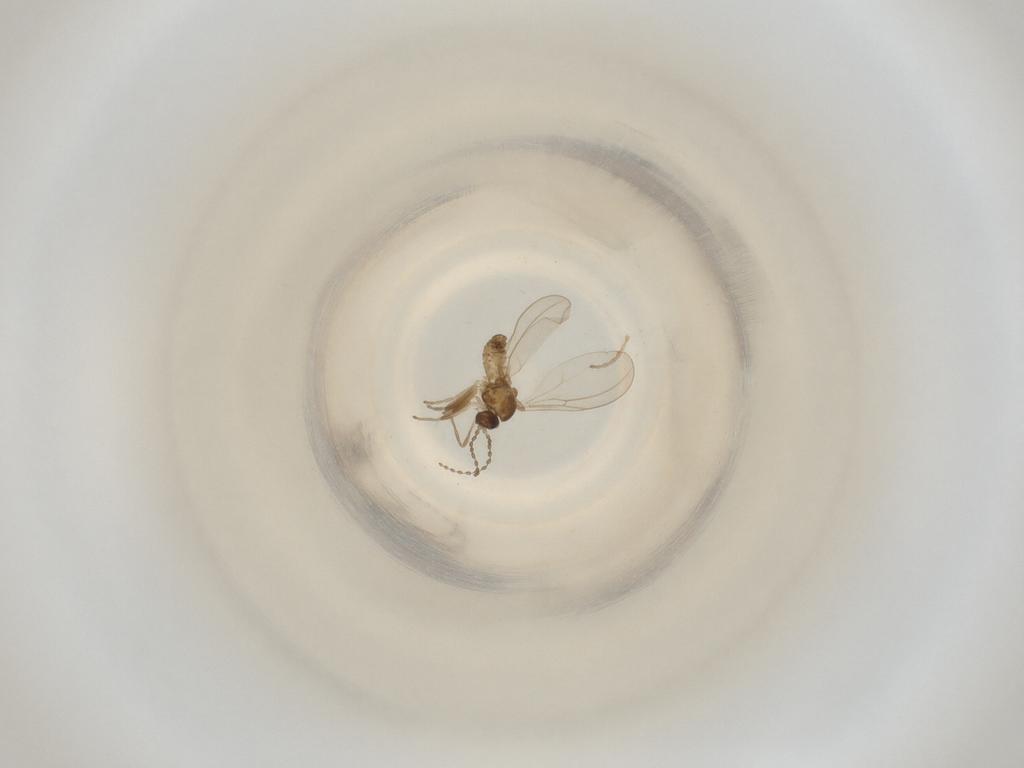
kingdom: Animalia
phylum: Arthropoda
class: Insecta
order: Diptera
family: Cecidomyiidae
